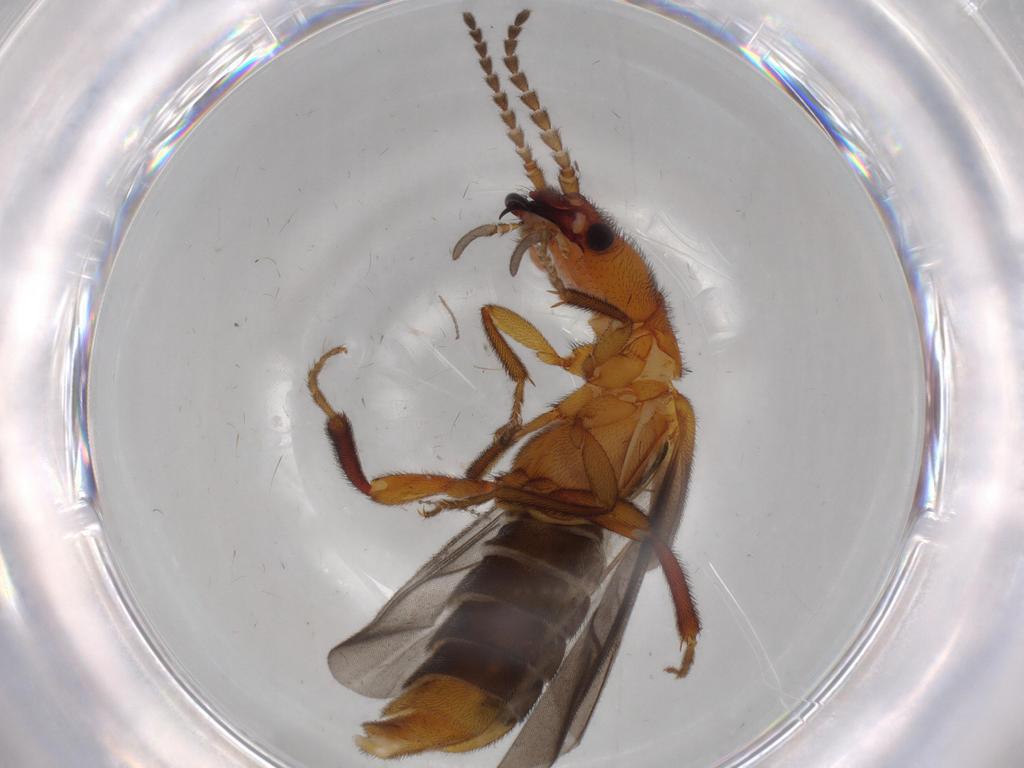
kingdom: Animalia
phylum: Arthropoda
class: Insecta
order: Coleoptera
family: Omethidae
